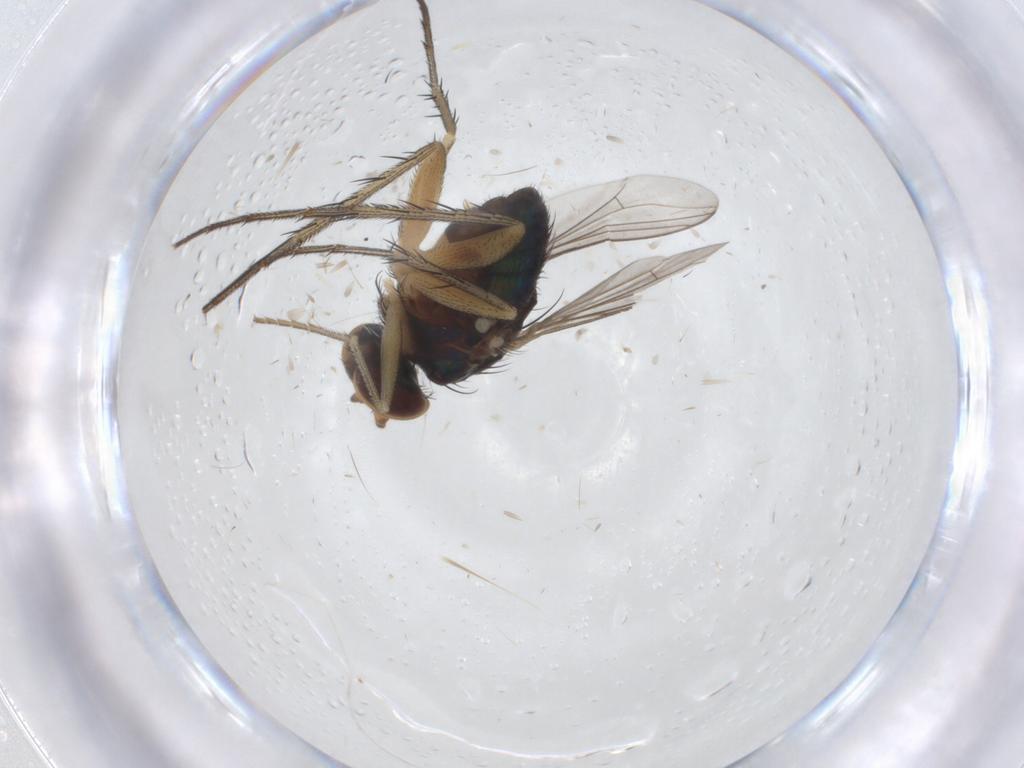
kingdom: Animalia
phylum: Arthropoda
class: Insecta
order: Diptera
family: Dolichopodidae
